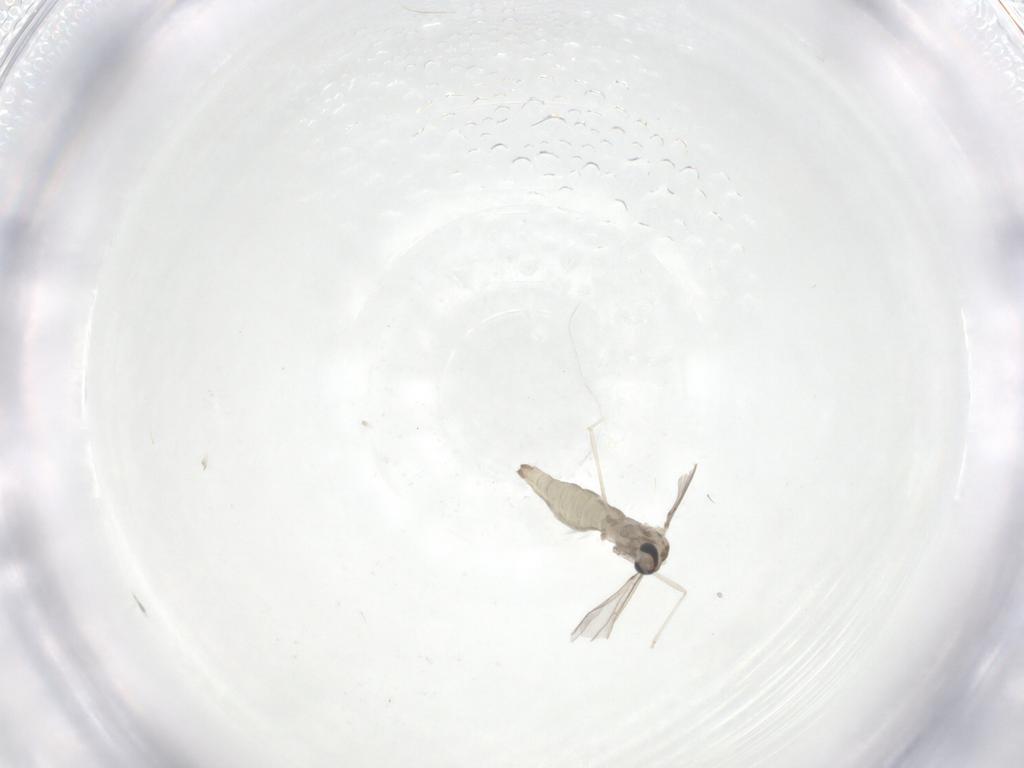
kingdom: Animalia
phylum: Arthropoda
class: Insecta
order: Diptera
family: Cecidomyiidae
